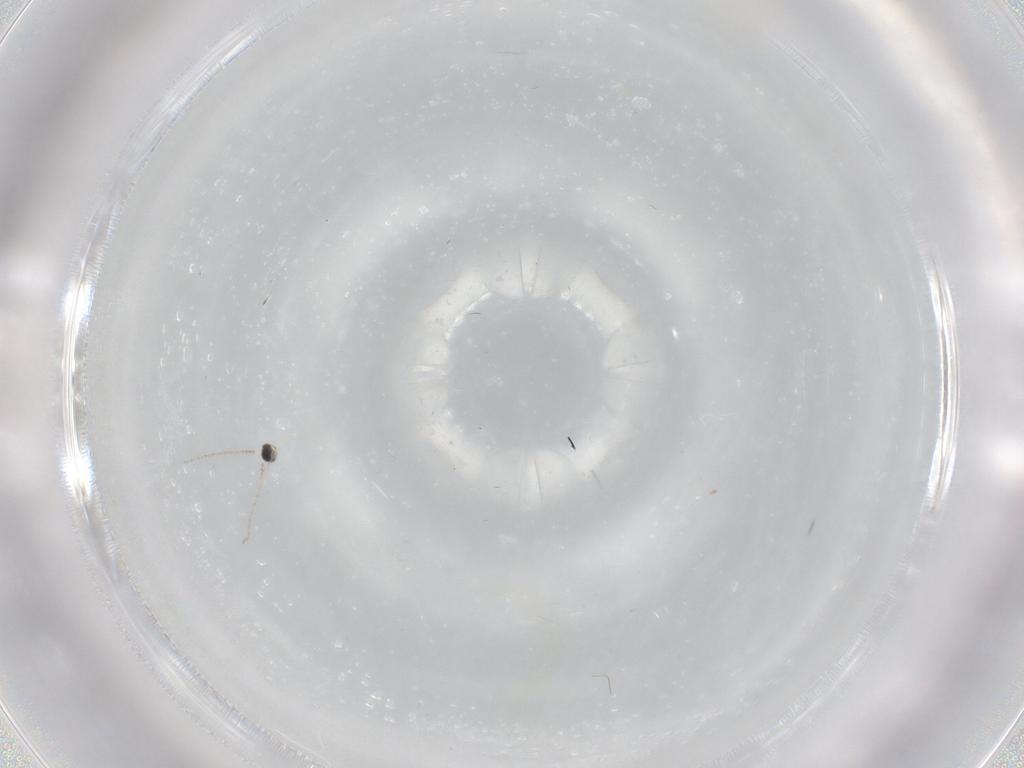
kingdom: Animalia
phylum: Arthropoda
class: Insecta
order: Diptera
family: Cecidomyiidae
